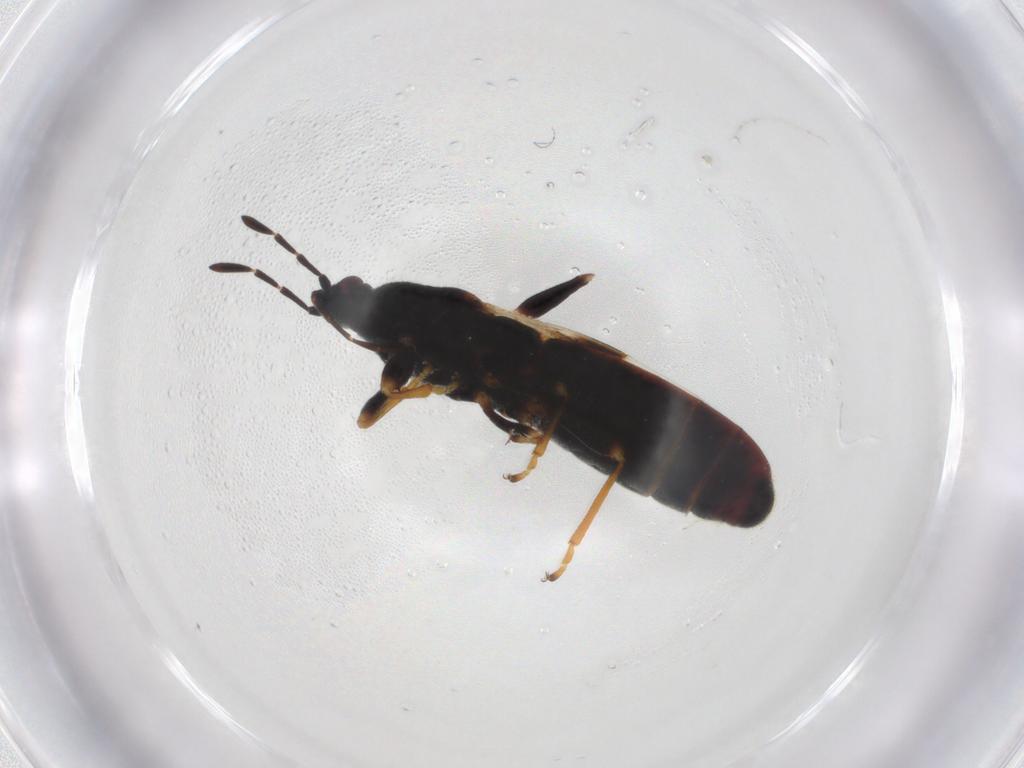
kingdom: Animalia
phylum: Arthropoda
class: Insecta
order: Hemiptera
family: Blissidae
